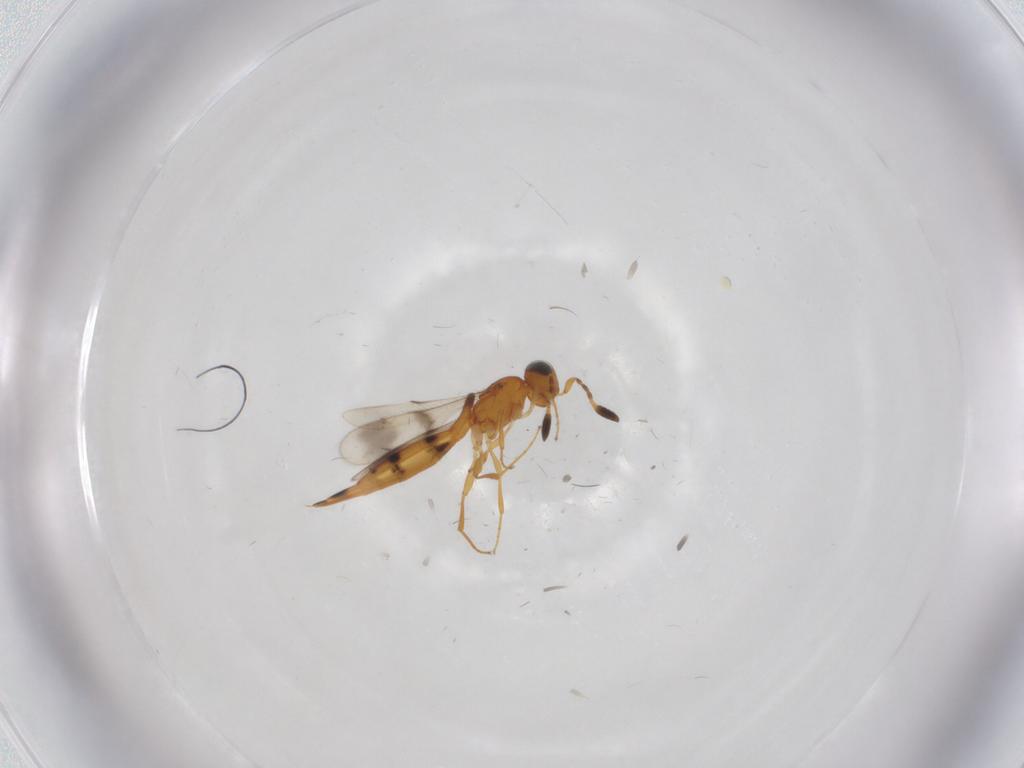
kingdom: Animalia
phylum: Arthropoda
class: Insecta
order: Hymenoptera
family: Scelionidae
